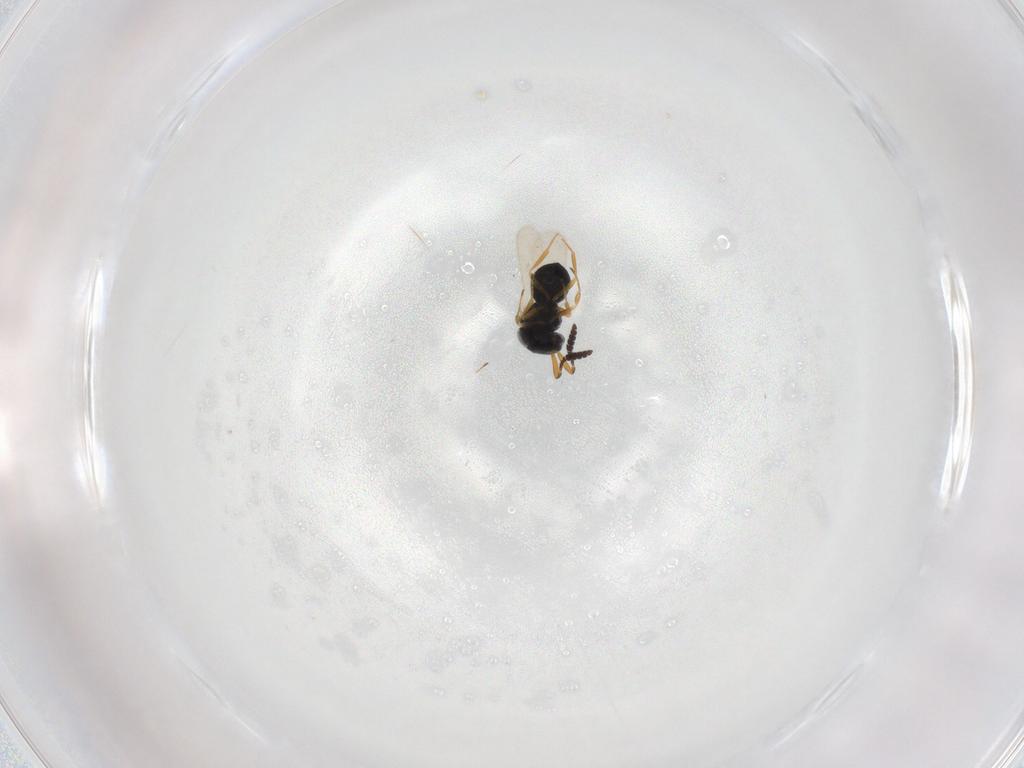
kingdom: Animalia
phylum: Arthropoda
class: Insecta
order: Hymenoptera
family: Scelionidae
